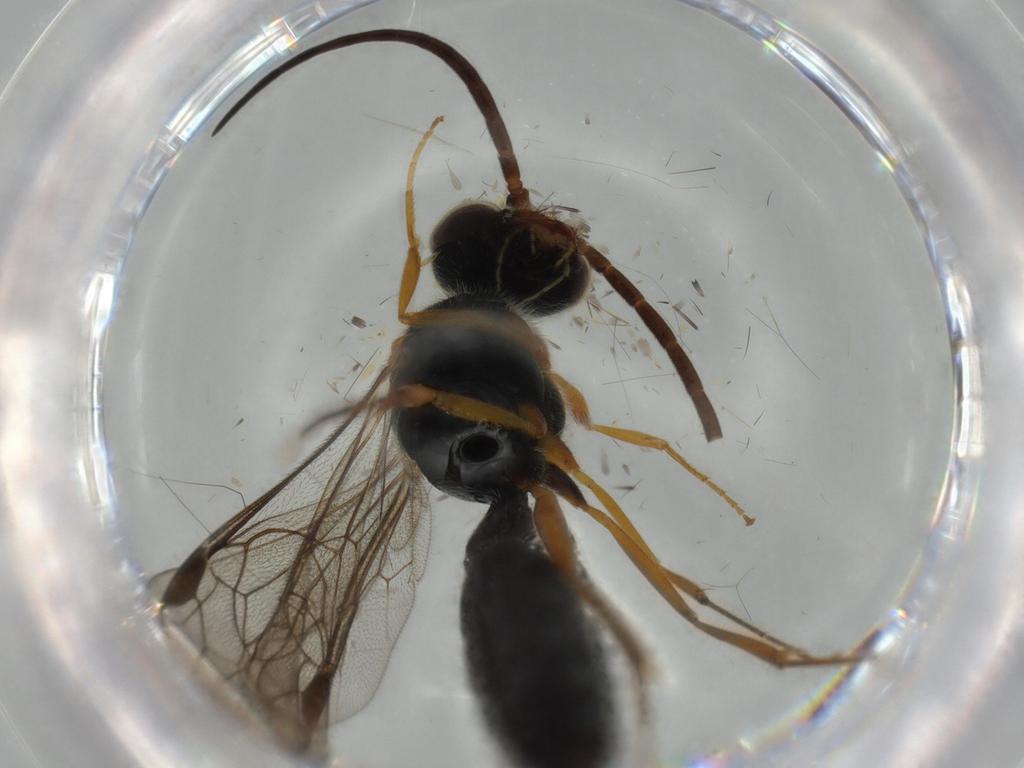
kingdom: Animalia
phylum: Arthropoda
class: Insecta
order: Hymenoptera
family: Formicidae
